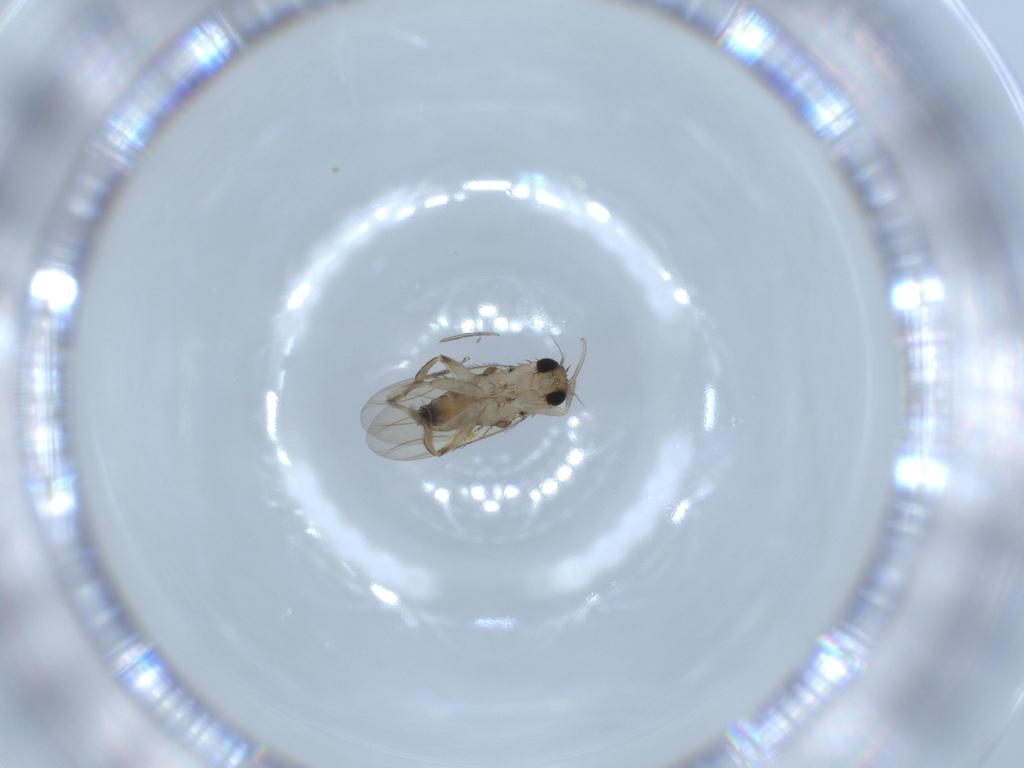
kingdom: Animalia
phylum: Arthropoda
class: Insecta
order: Diptera
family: Phoridae
